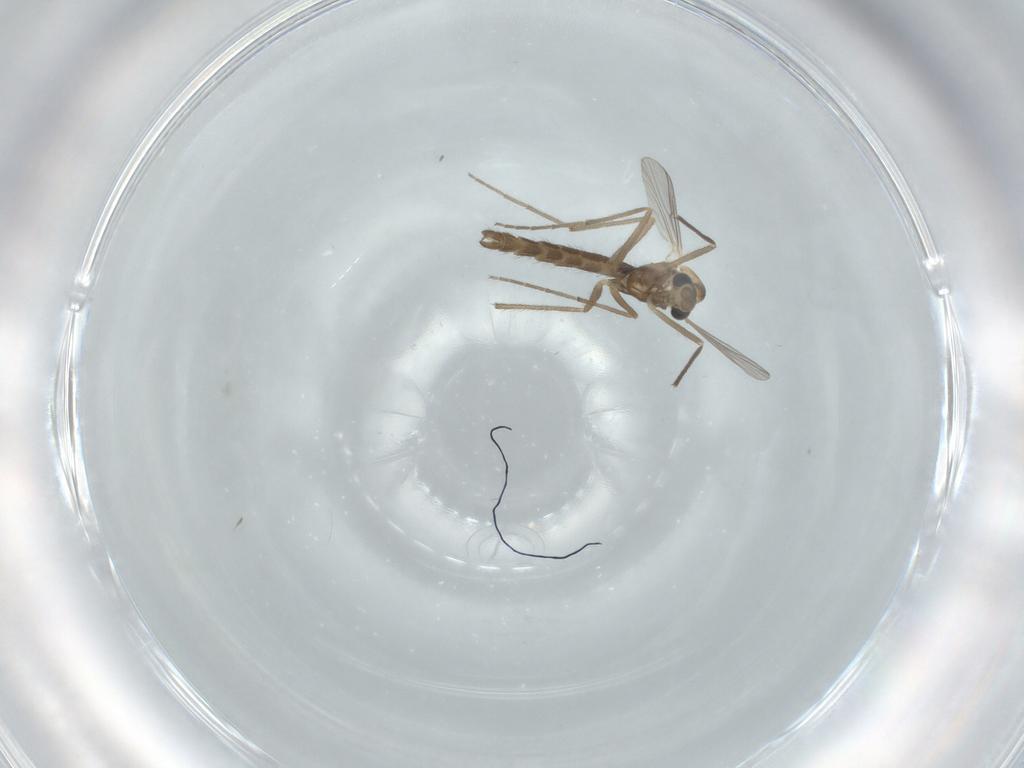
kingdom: Animalia
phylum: Arthropoda
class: Insecta
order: Diptera
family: Chironomidae
